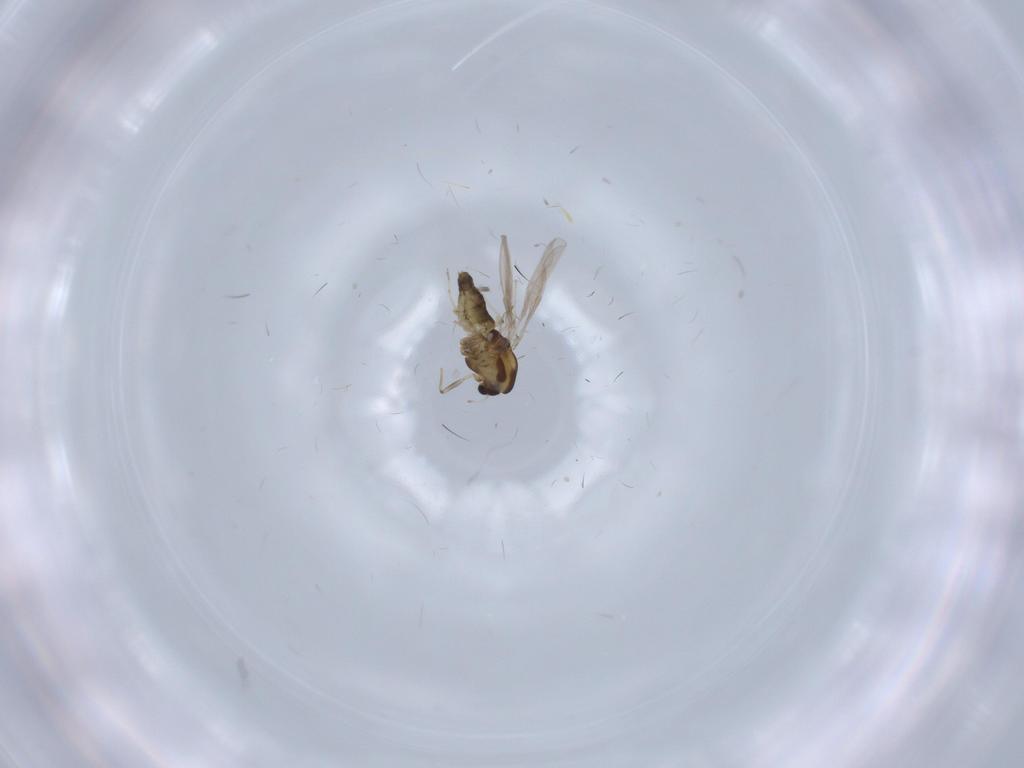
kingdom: Animalia
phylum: Arthropoda
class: Insecta
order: Diptera
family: Chironomidae
